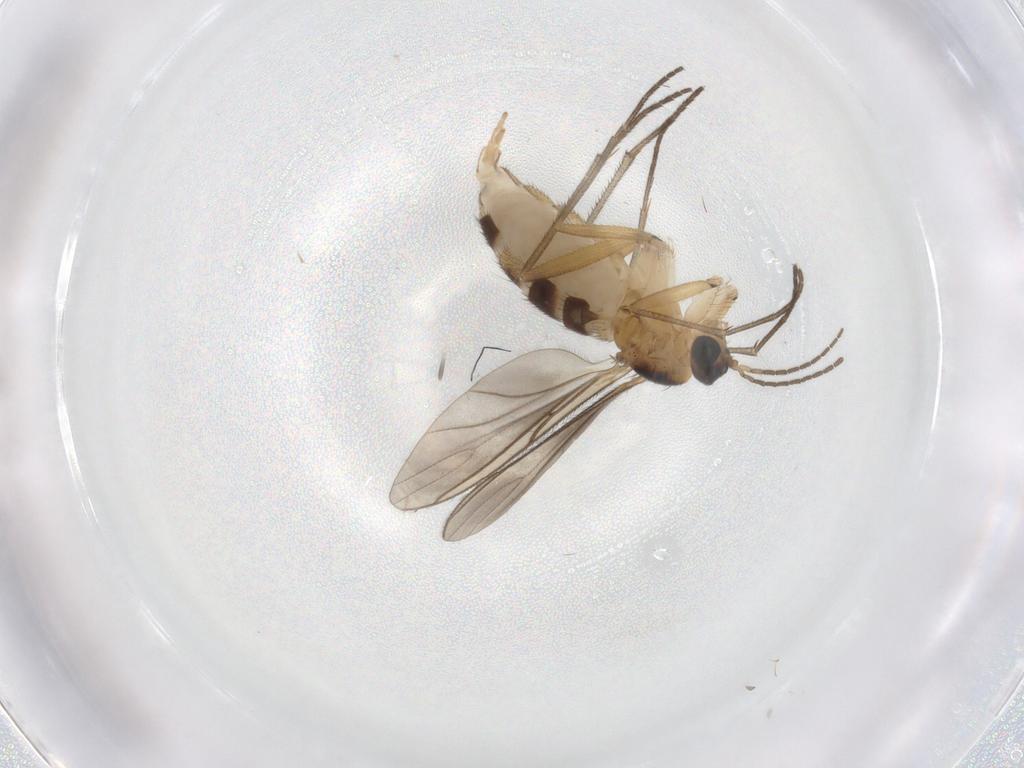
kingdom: Animalia
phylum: Arthropoda
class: Insecta
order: Diptera
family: Sciaridae
